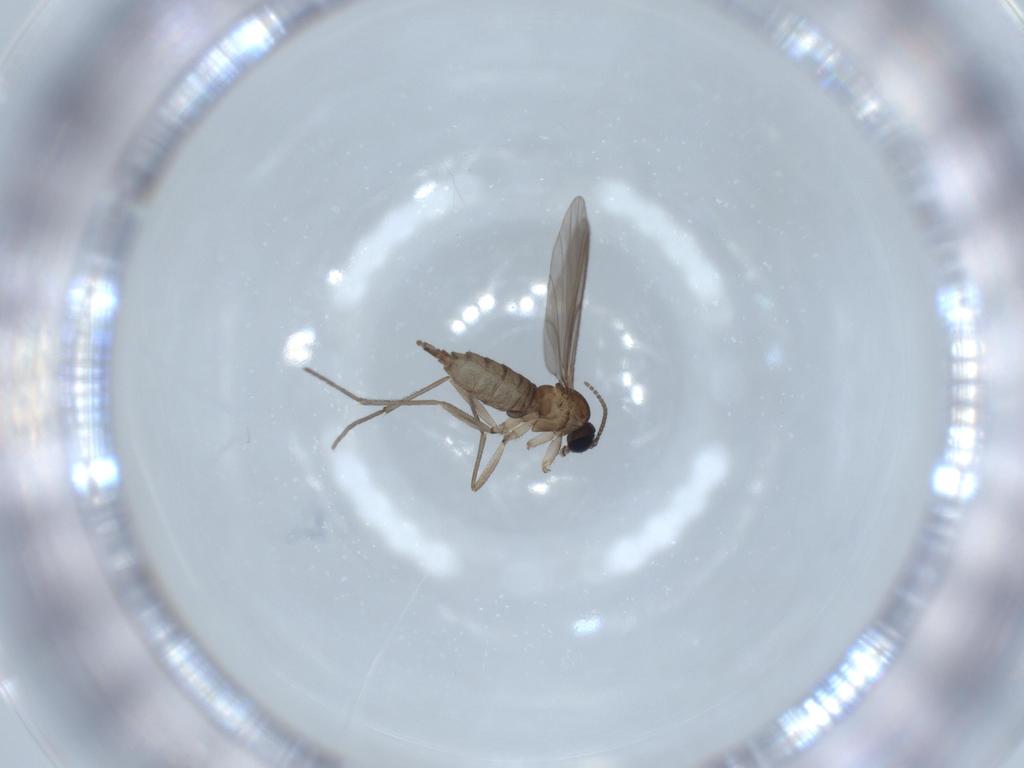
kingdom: Animalia
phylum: Arthropoda
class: Insecta
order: Diptera
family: Sciaridae
